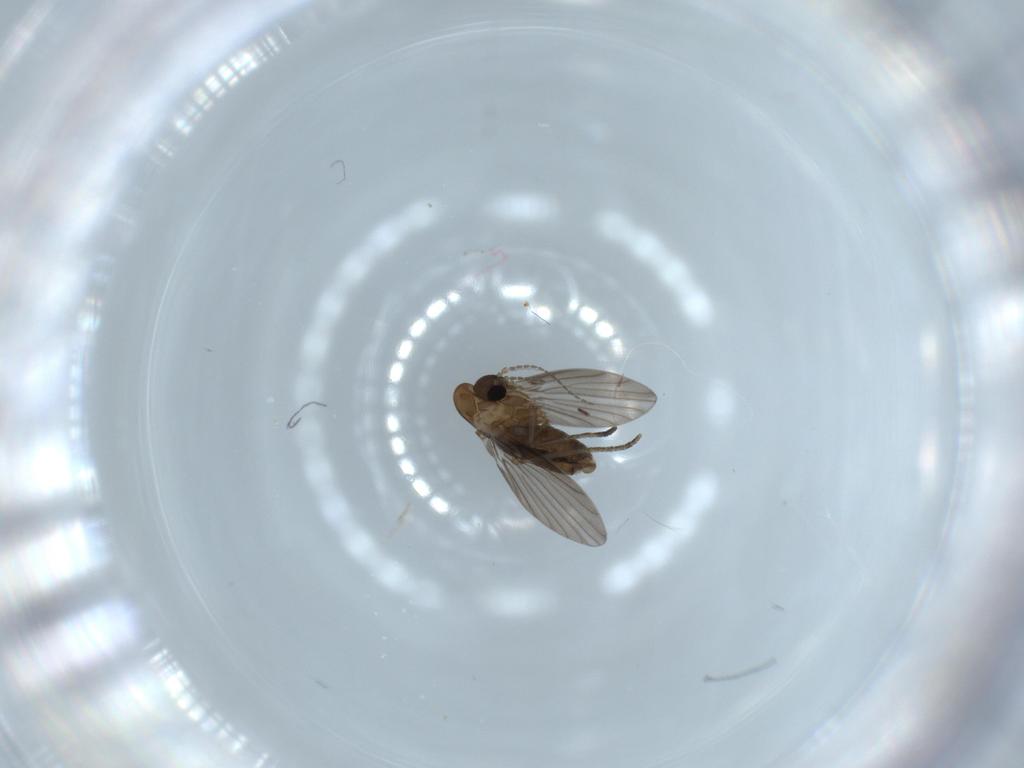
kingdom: Animalia
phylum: Arthropoda
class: Insecta
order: Diptera
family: Psychodidae
